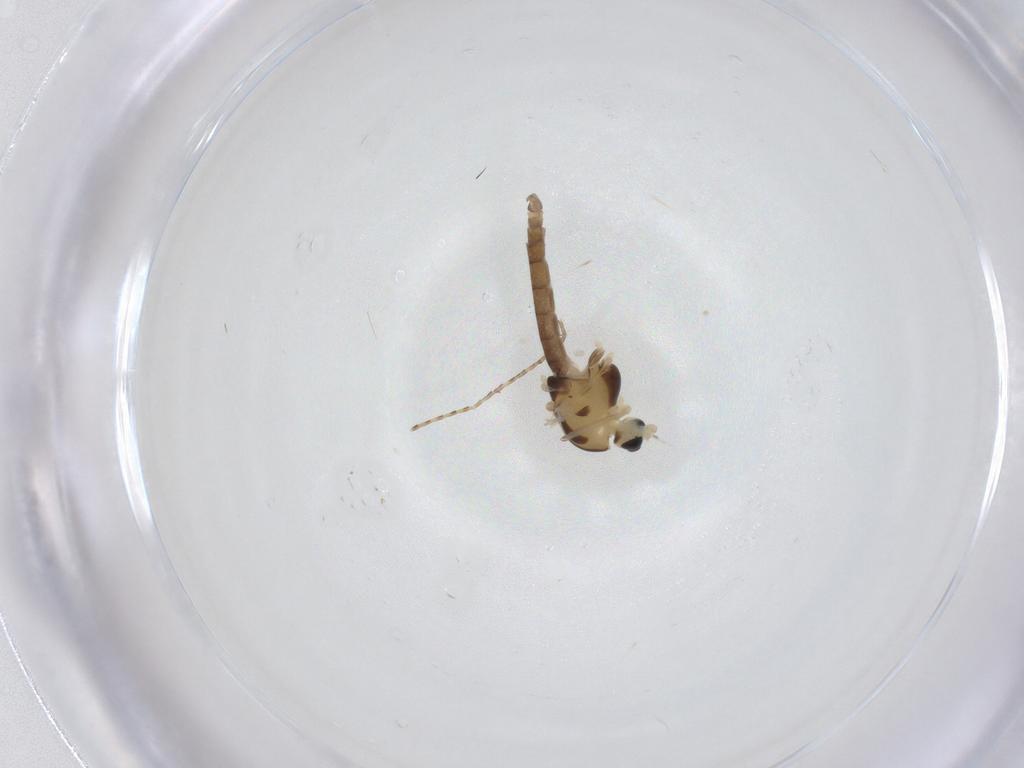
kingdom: Animalia
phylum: Arthropoda
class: Insecta
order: Diptera
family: Chironomidae
